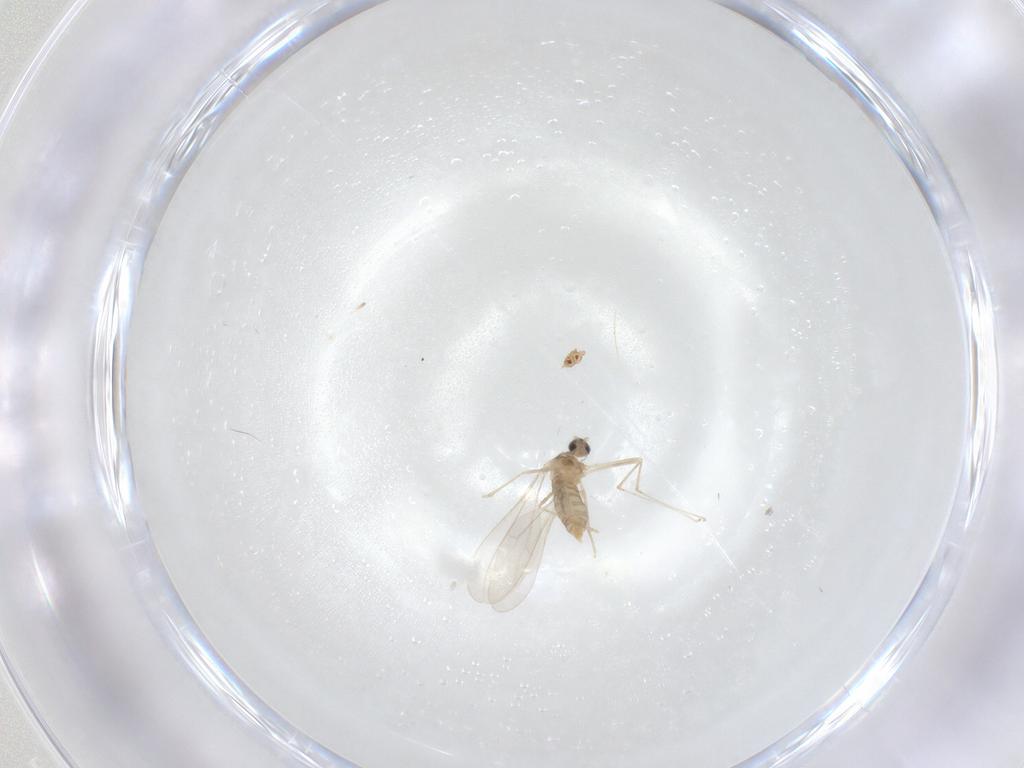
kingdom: Animalia
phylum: Arthropoda
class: Insecta
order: Diptera
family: Cecidomyiidae
